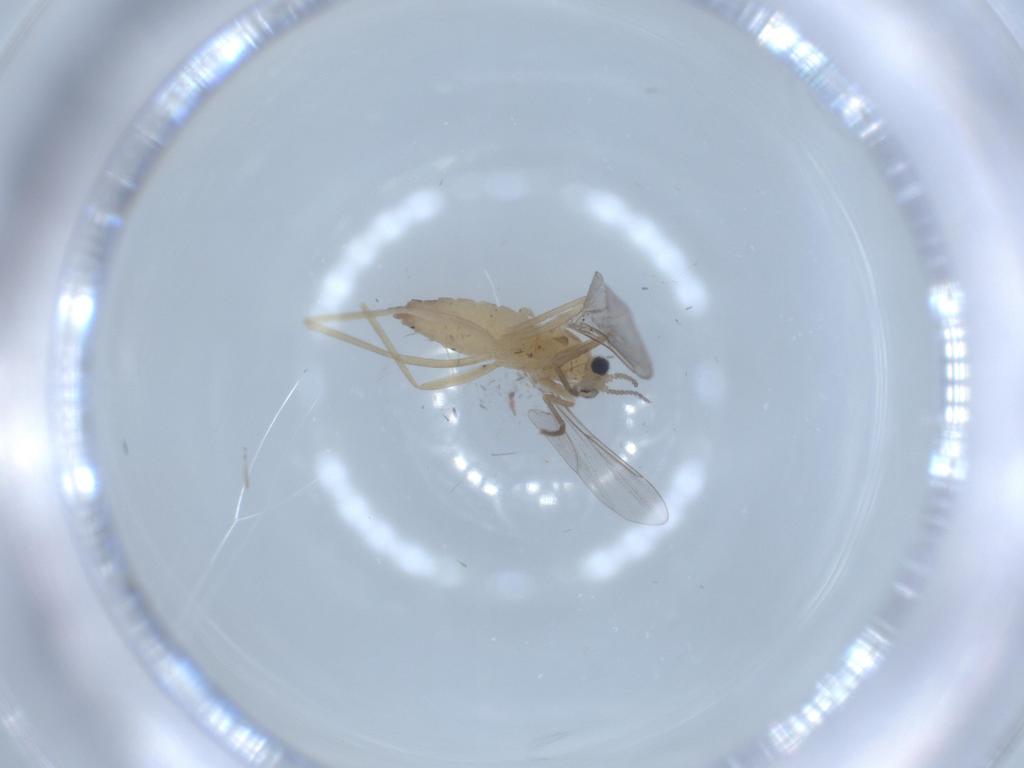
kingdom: Animalia
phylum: Arthropoda
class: Insecta
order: Diptera
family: Cecidomyiidae
